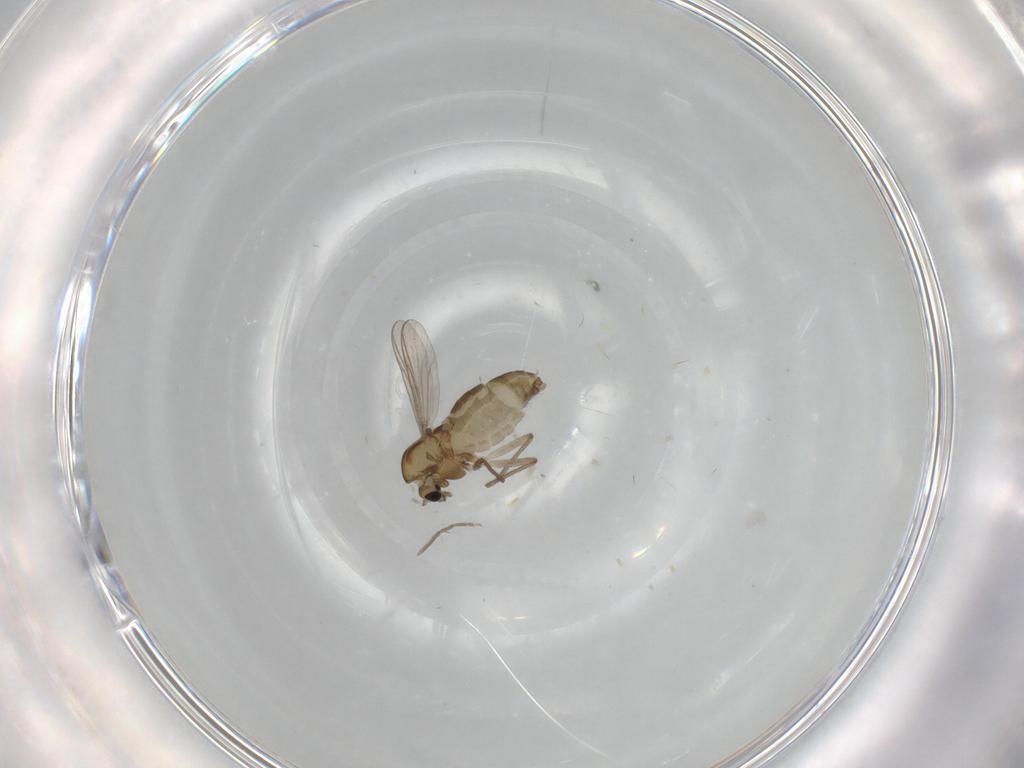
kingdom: Animalia
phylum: Arthropoda
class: Insecta
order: Diptera
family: Chironomidae
